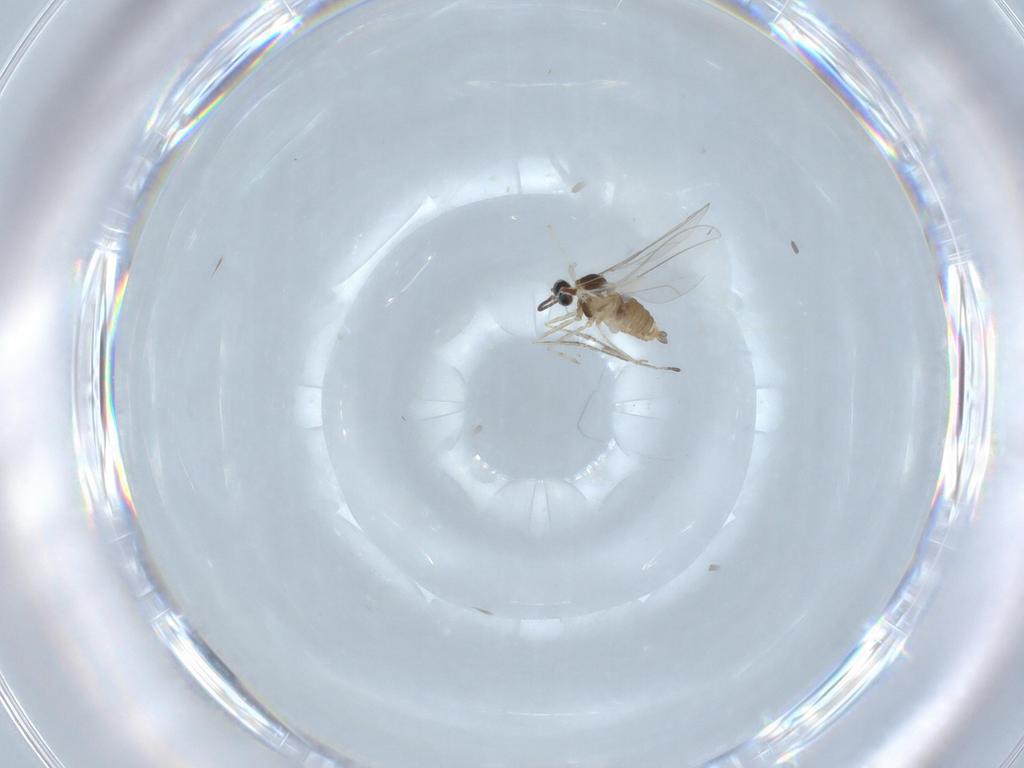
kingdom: Animalia
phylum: Arthropoda
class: Insecta
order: Diptera
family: Cecidomyiidae
